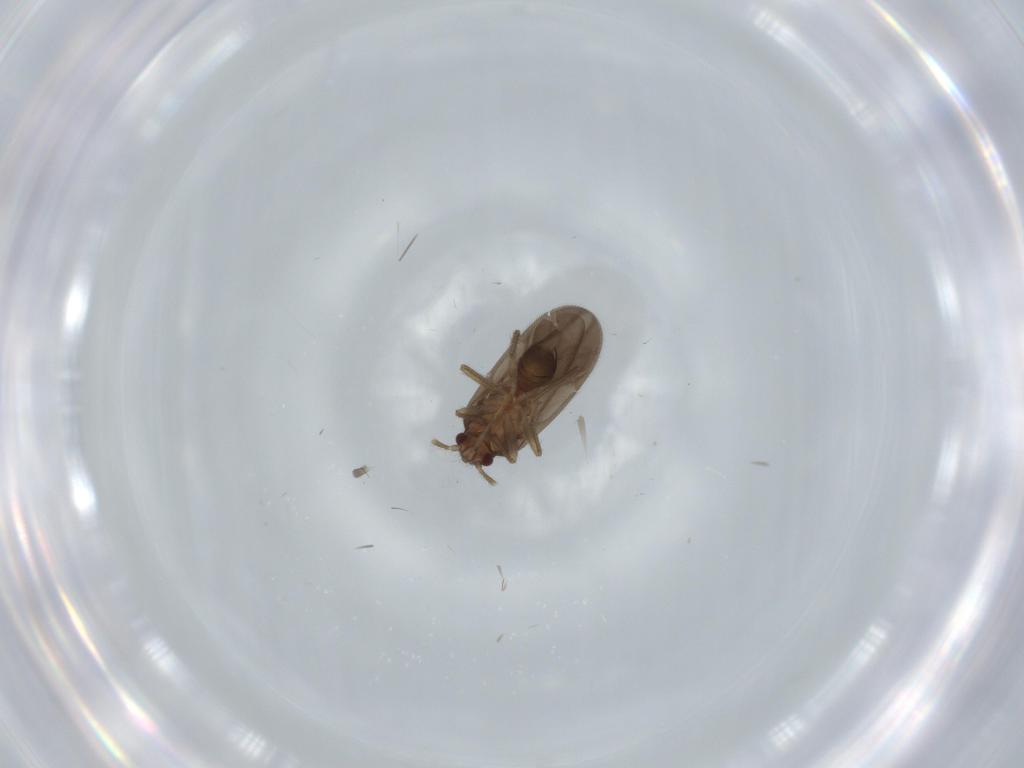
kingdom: Animalia
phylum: Arthropoda
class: Insecta
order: Hemiptera
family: Ceratocombidae
